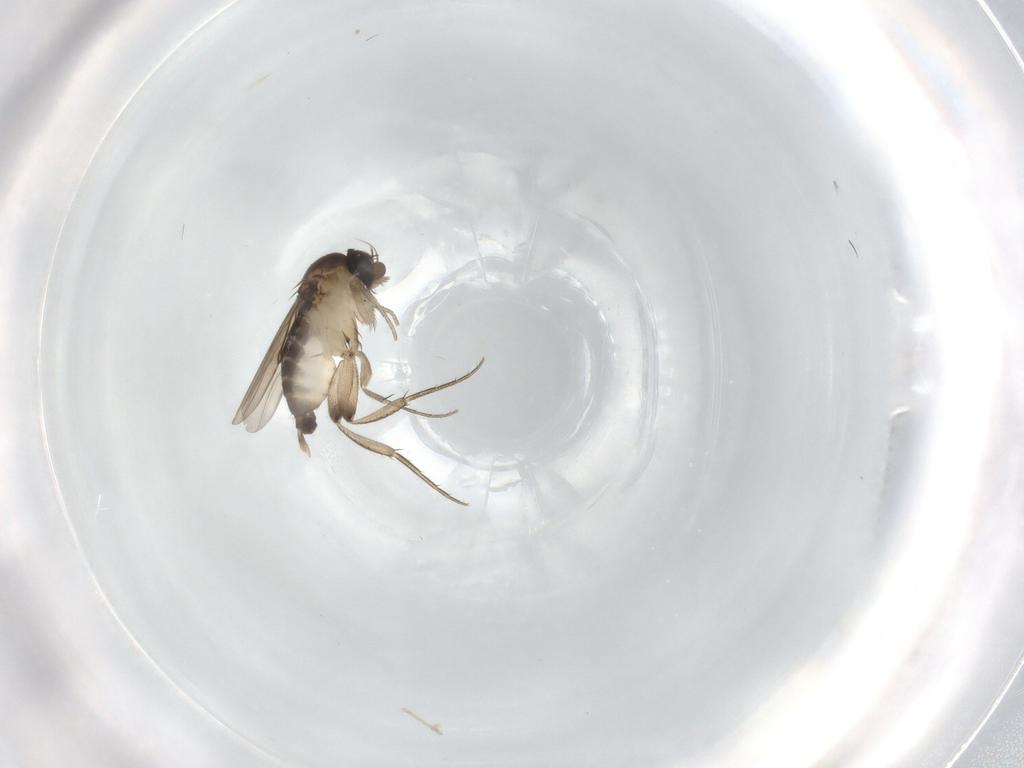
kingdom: Animalia
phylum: Arthropoda
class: Insecta
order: Diptera
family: Phoridae
